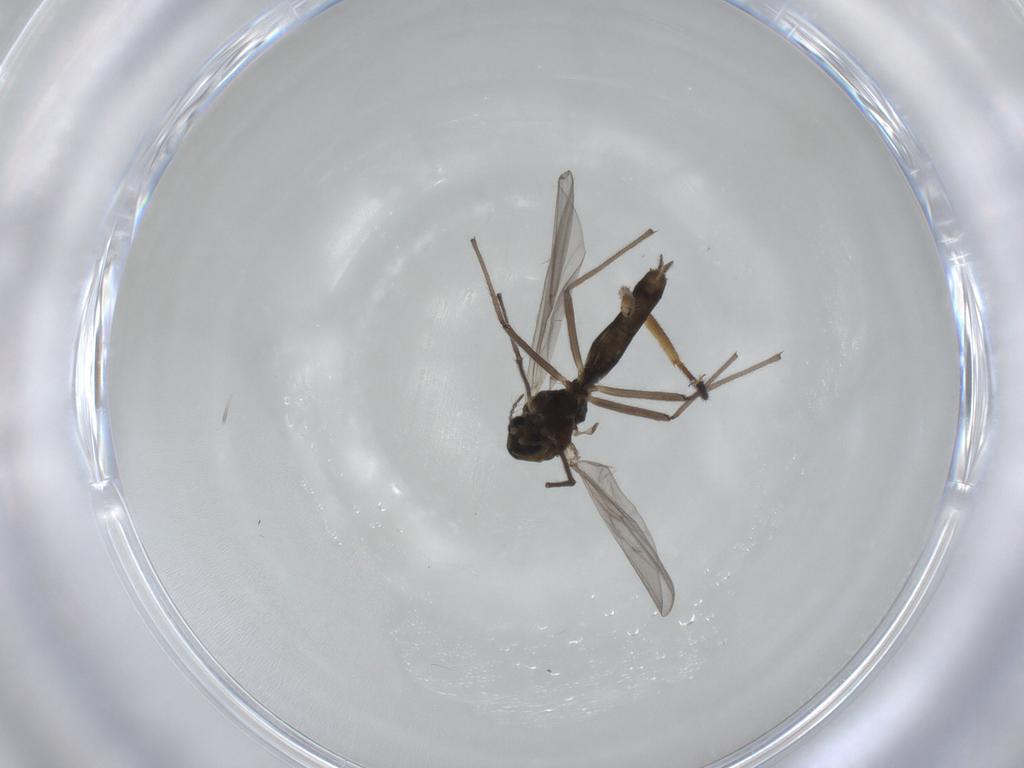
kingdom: Animalia
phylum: Arthropoda
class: Insecta
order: Diptera
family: Hybotidae
